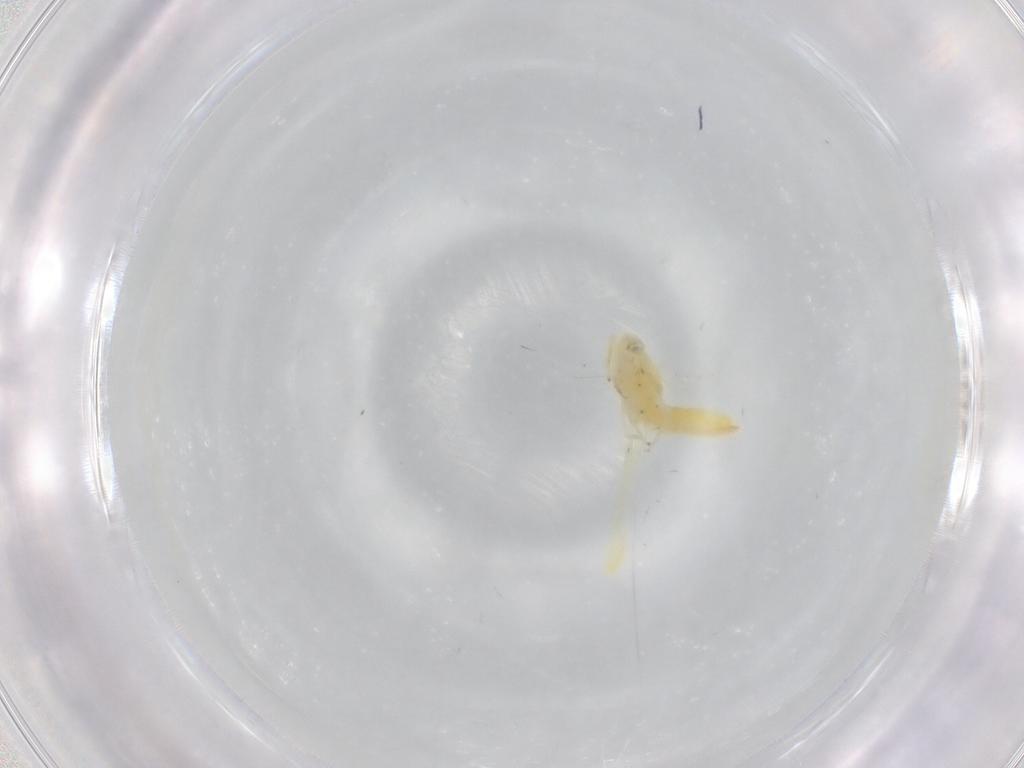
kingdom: Animalia
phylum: Arthropoda
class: Insecta
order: Hemiptera
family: Cicadellidae
